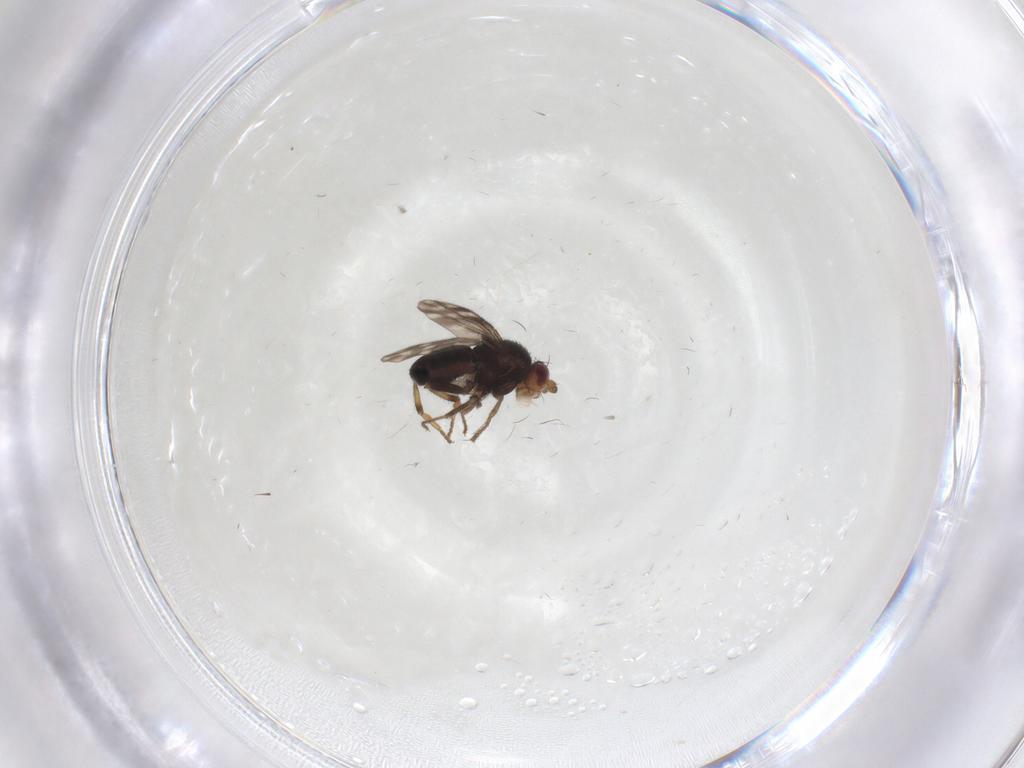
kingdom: Animalia
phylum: Arthropoda
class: Insecta
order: Diptera
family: Sphaeroceridae
